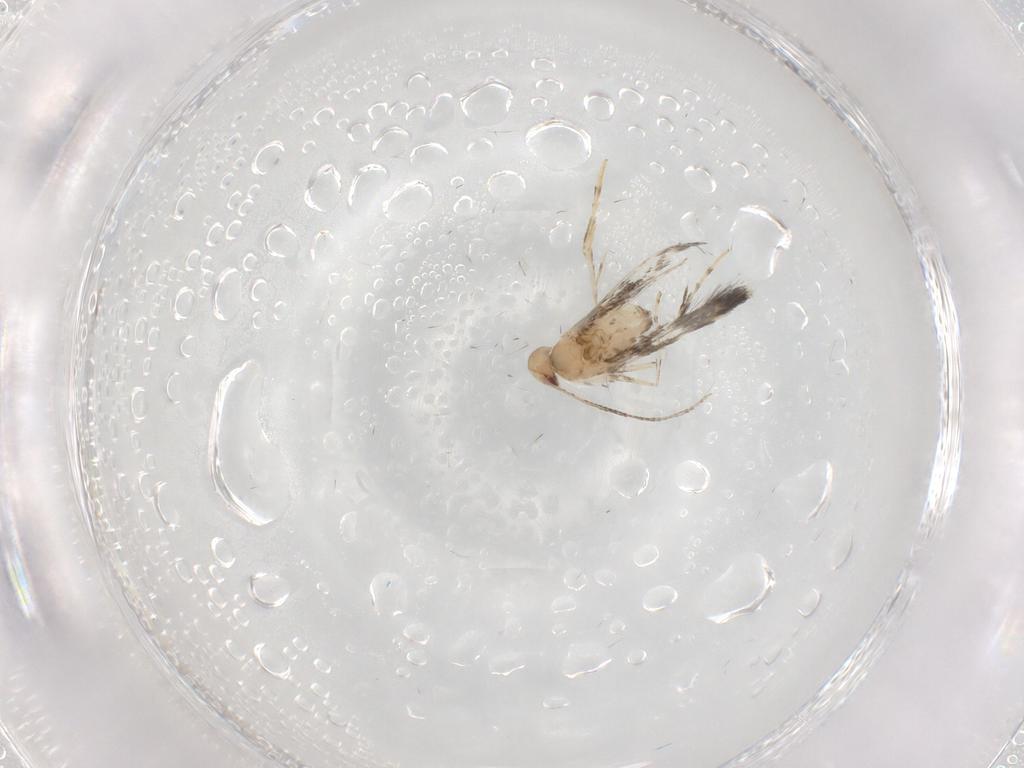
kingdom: Animalia
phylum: Arthropoda
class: Insecta
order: Lepidoptera
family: Gracillariidae
